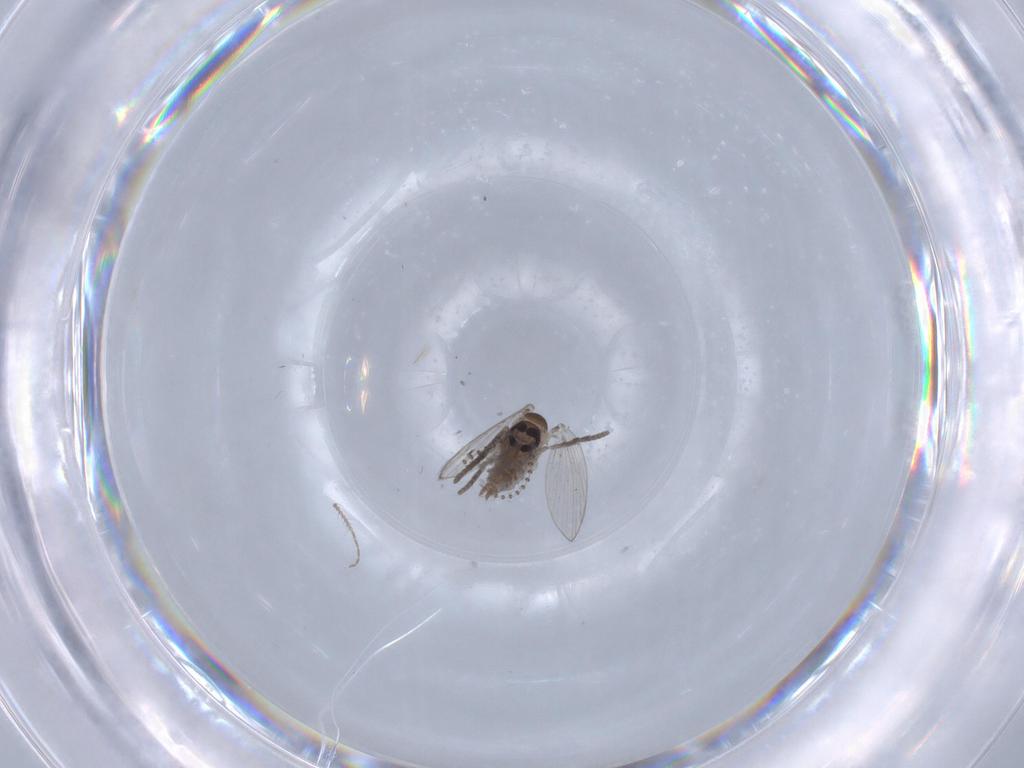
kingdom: Animalia
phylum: Arthropoda
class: Insecta
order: Diptera
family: Psychodidae
